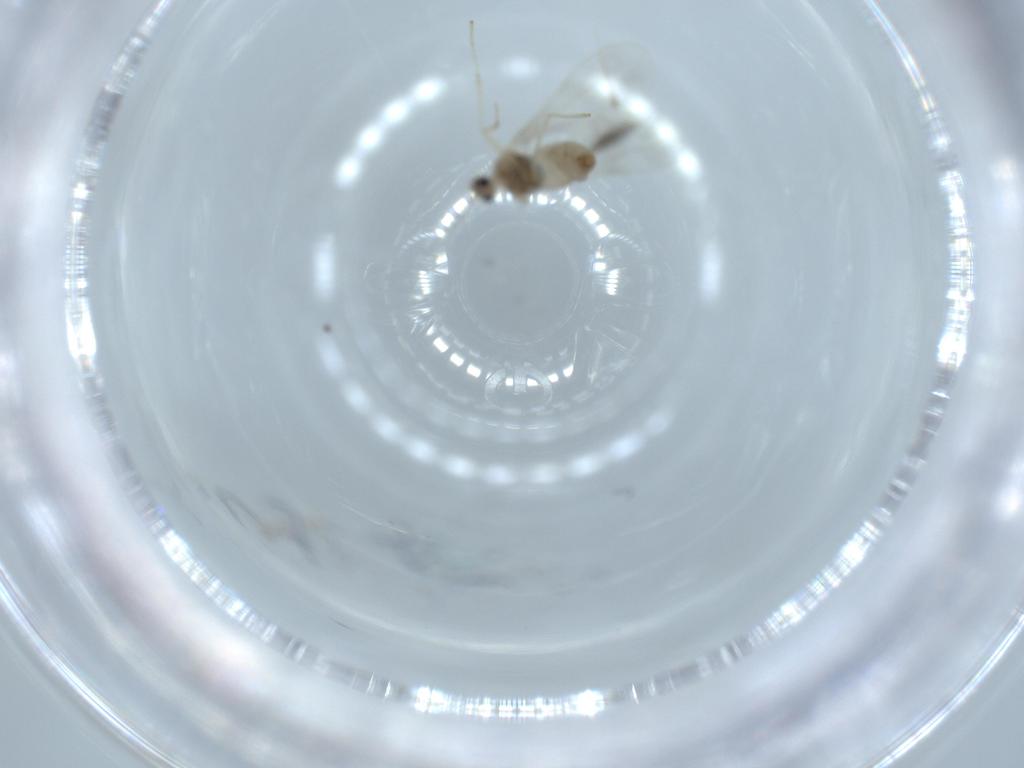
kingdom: Animalia
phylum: Arthropoda
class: Insecta
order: Diptera
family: Cecidomyiidae
